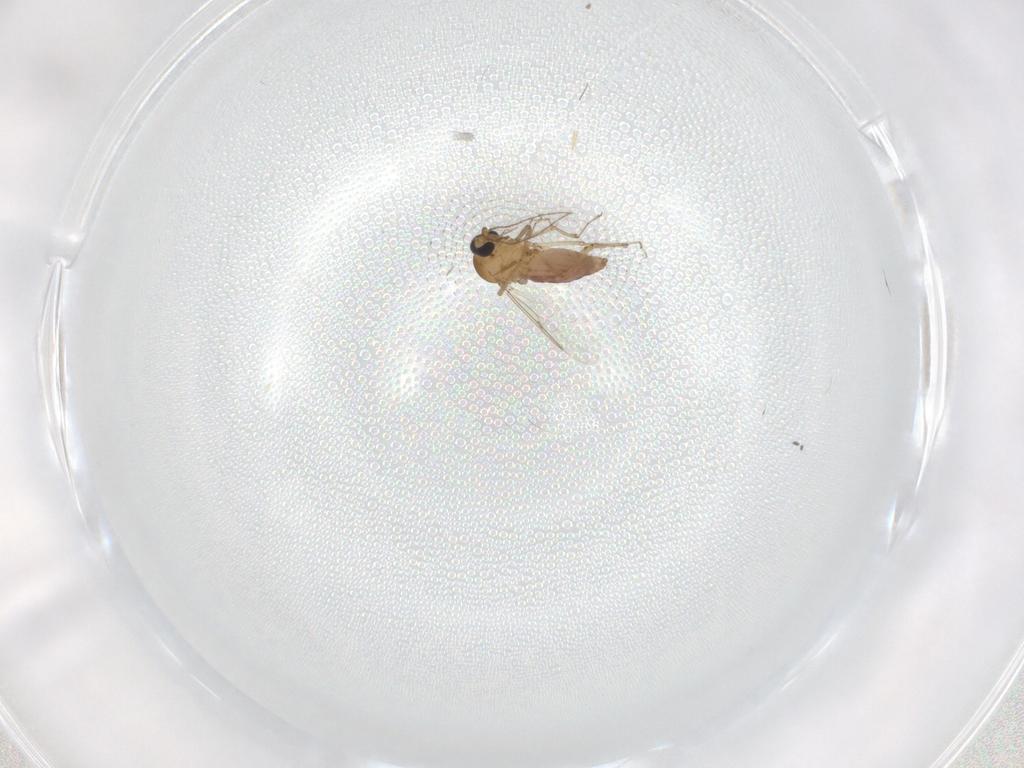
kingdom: Animalia
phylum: Arthropoda
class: Insecta
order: Diptera
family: Chironomidae
